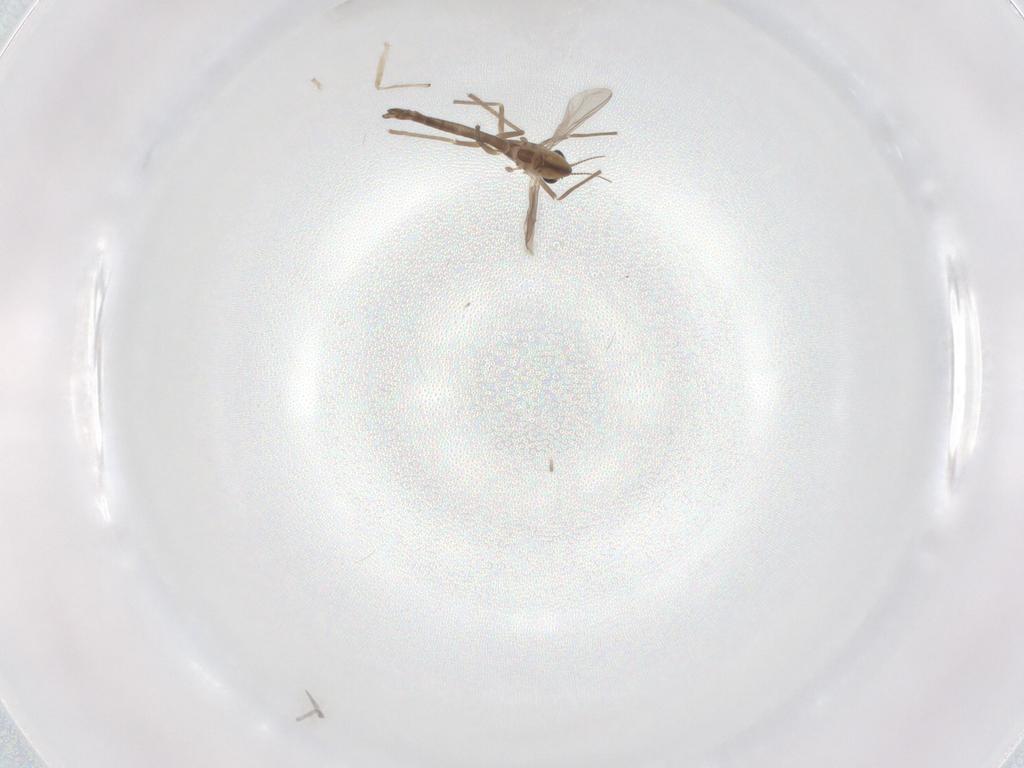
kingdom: Animalia
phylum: Arthropoda
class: Insecta
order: Diptera
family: Chironomidae
